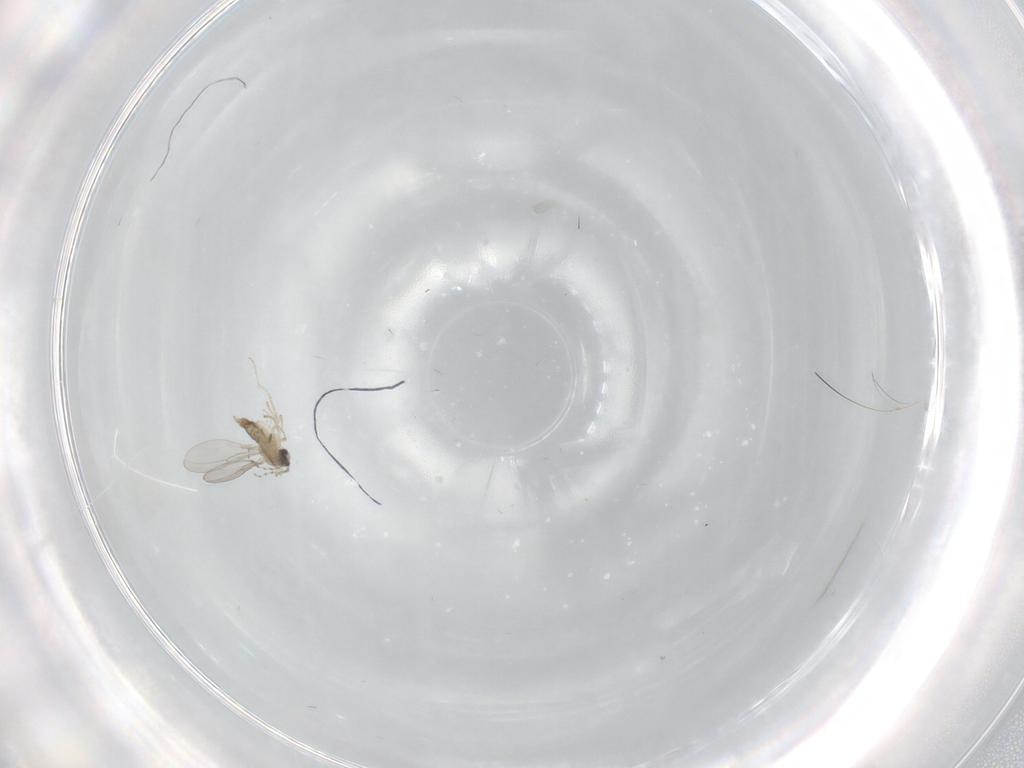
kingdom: Animalia
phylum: Arthropoda
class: Insecta
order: Diptera
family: Cecidomyiidae
